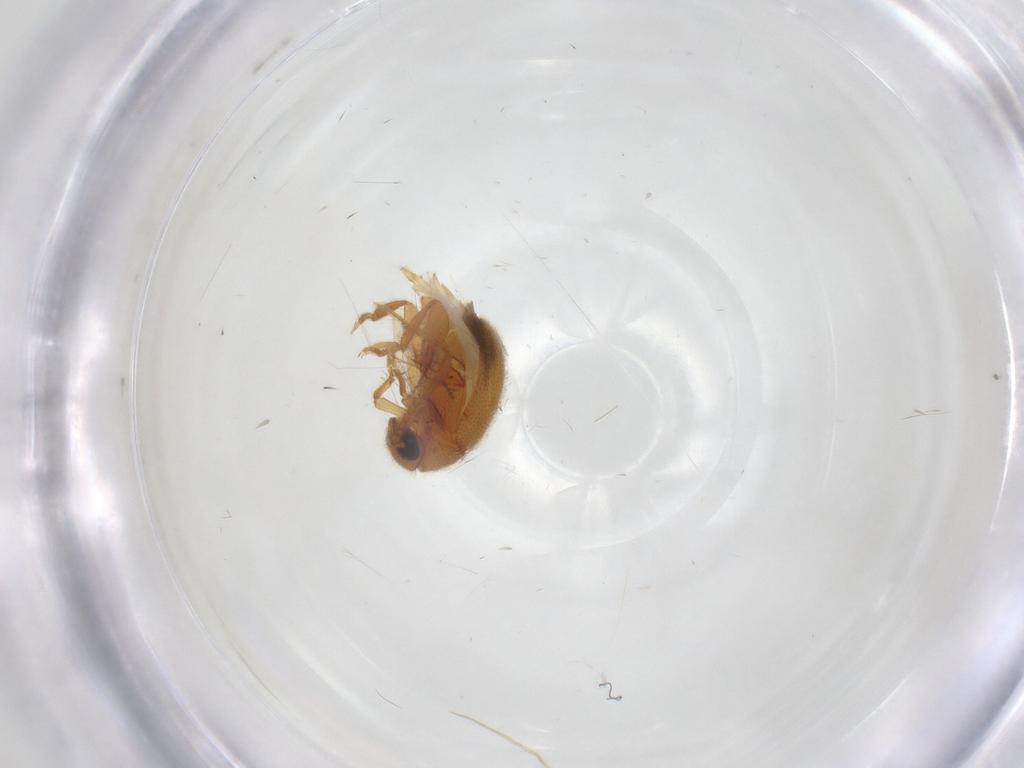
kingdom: Animalia
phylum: Arthropoda
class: Insecta
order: Coleoptera
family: Aderidae
